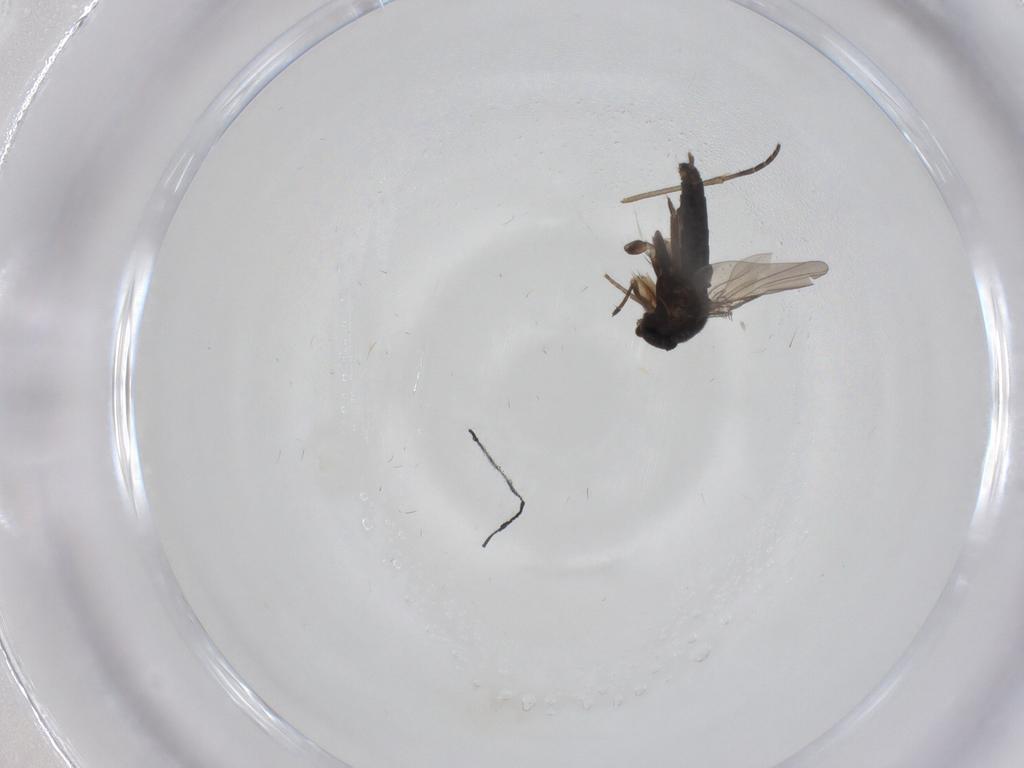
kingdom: Animalia
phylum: Arthropoda
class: Insecta
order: Diptera
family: Phoridae
